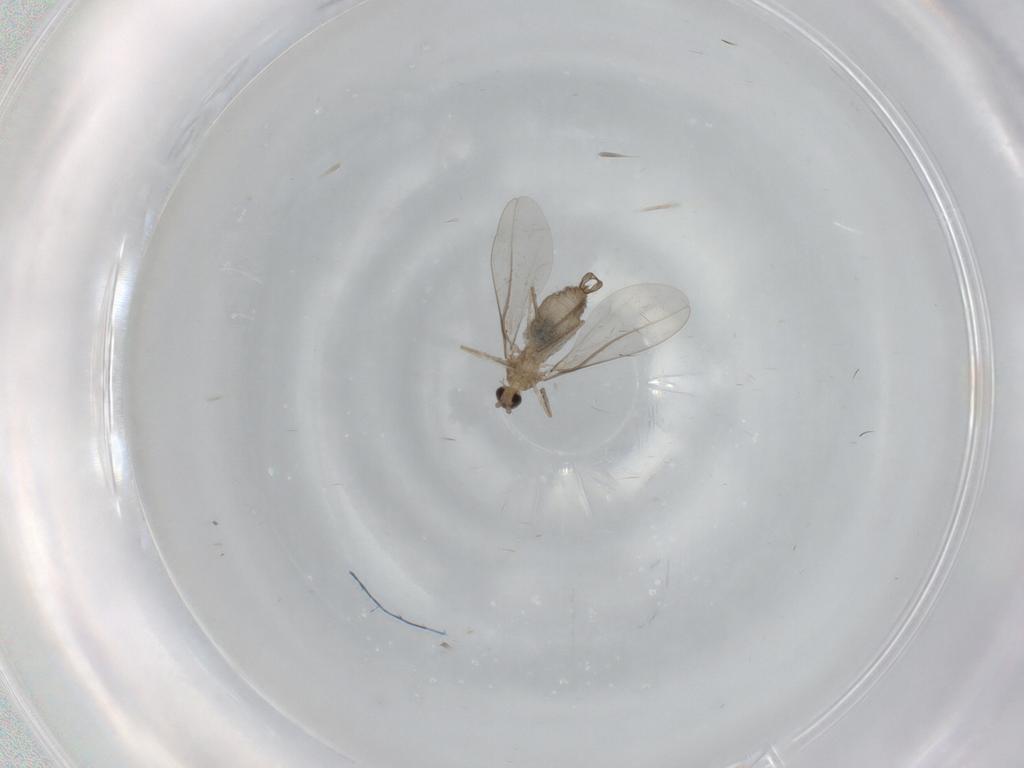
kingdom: Animalia
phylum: Arthropoda
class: Insecta
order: Diptera
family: Cecidomyiidae
